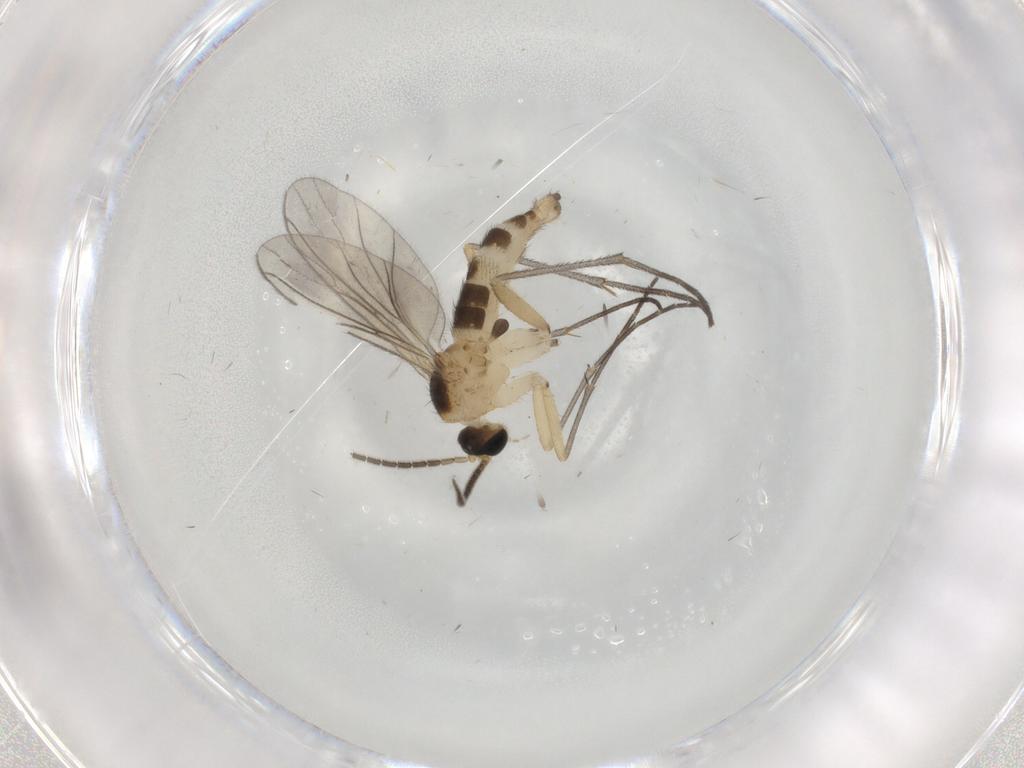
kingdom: Animalia
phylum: Arthropoda
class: Insecta
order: Diptera
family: Sciaridae
